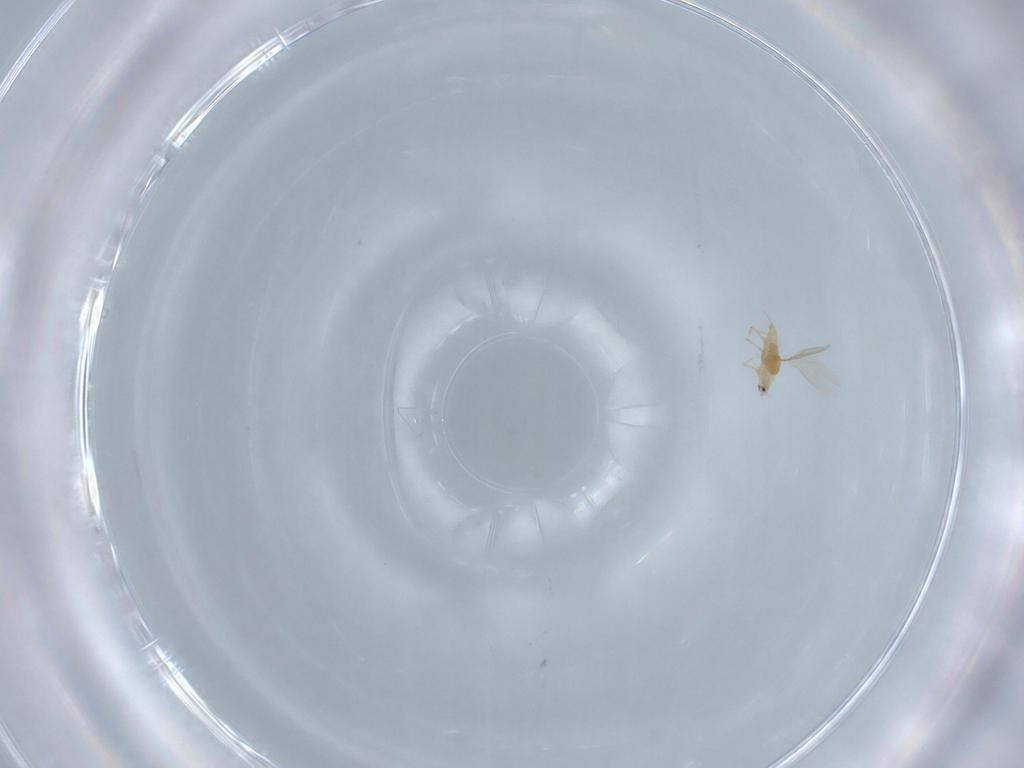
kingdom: Animalia
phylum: Arthropoda
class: Insecta
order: Hemiptera
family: Diaspididae
